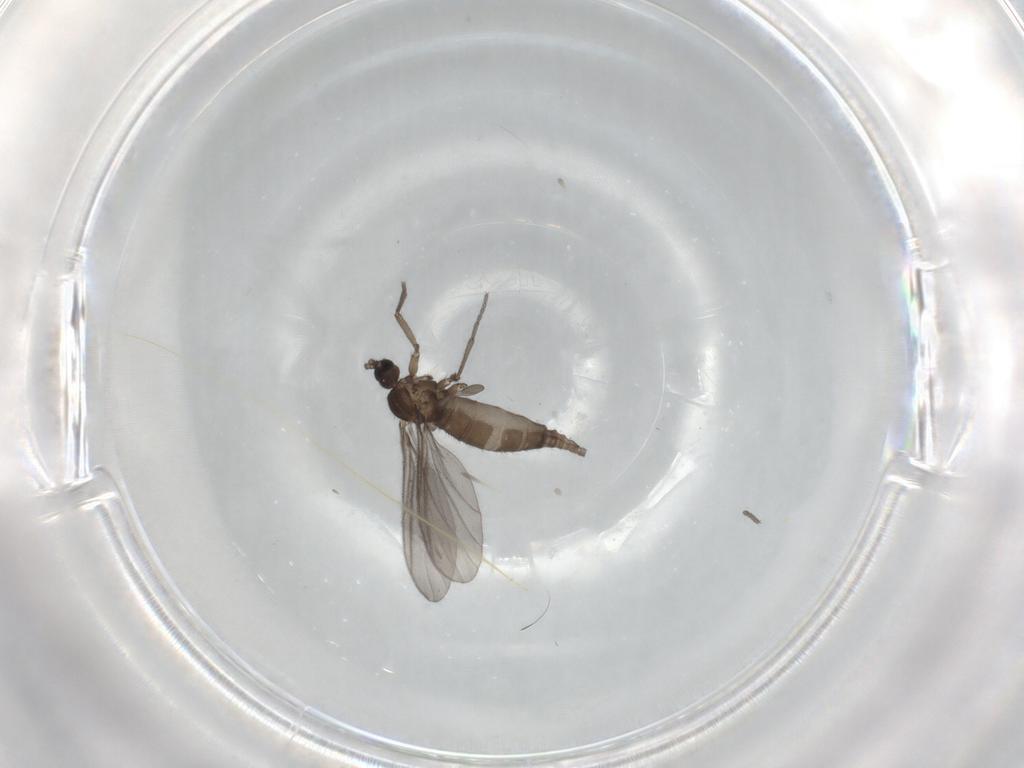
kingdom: Animalia
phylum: Arthropoda
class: Insecta
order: Diptera
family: Sciaridae
